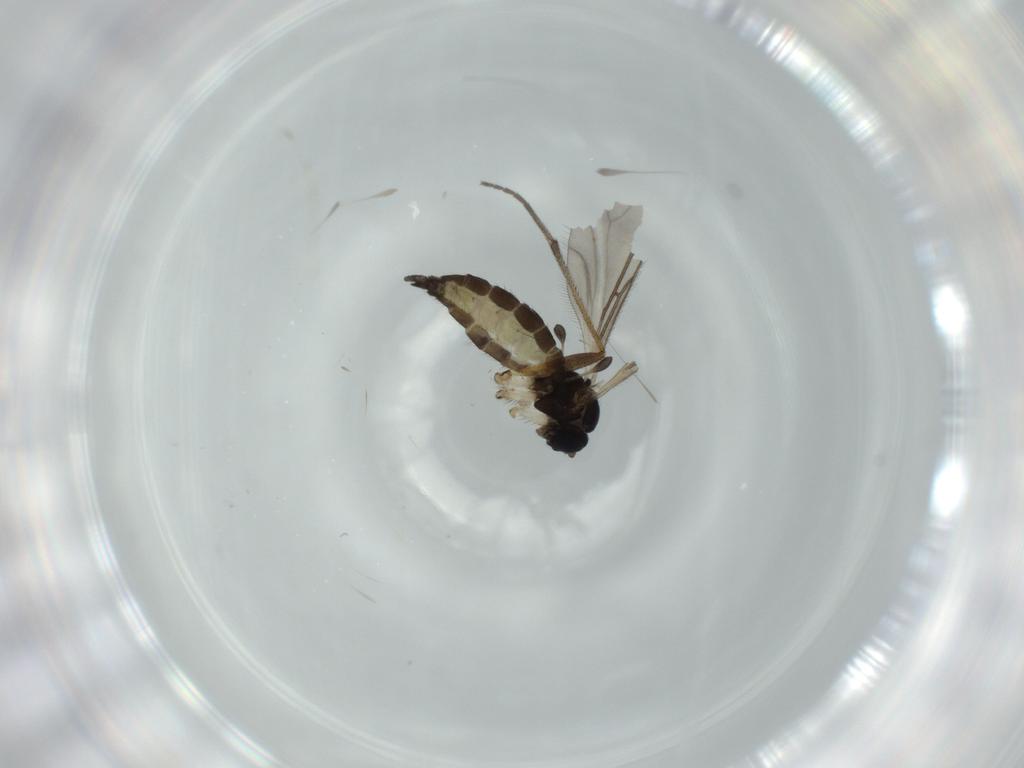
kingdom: Animalia
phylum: Arthropoda
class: Insecta
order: Diptera
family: Sciaridae
